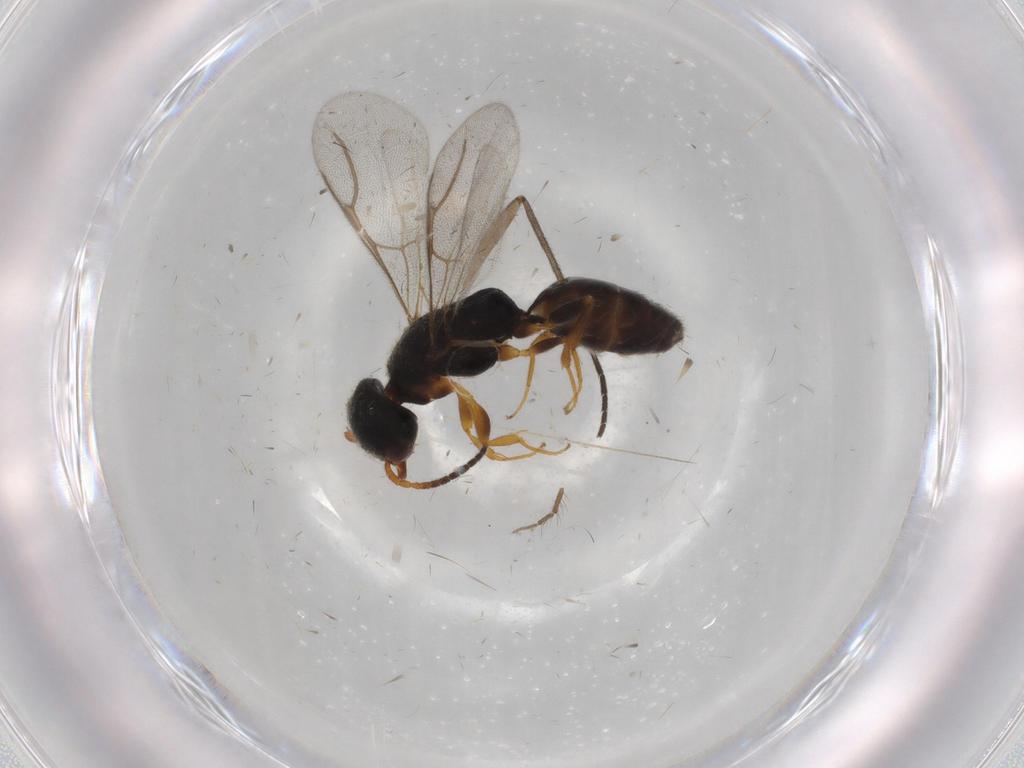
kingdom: Animalia
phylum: Arthropoda
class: Insecta
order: Hymenoptera
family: Bethylidae
